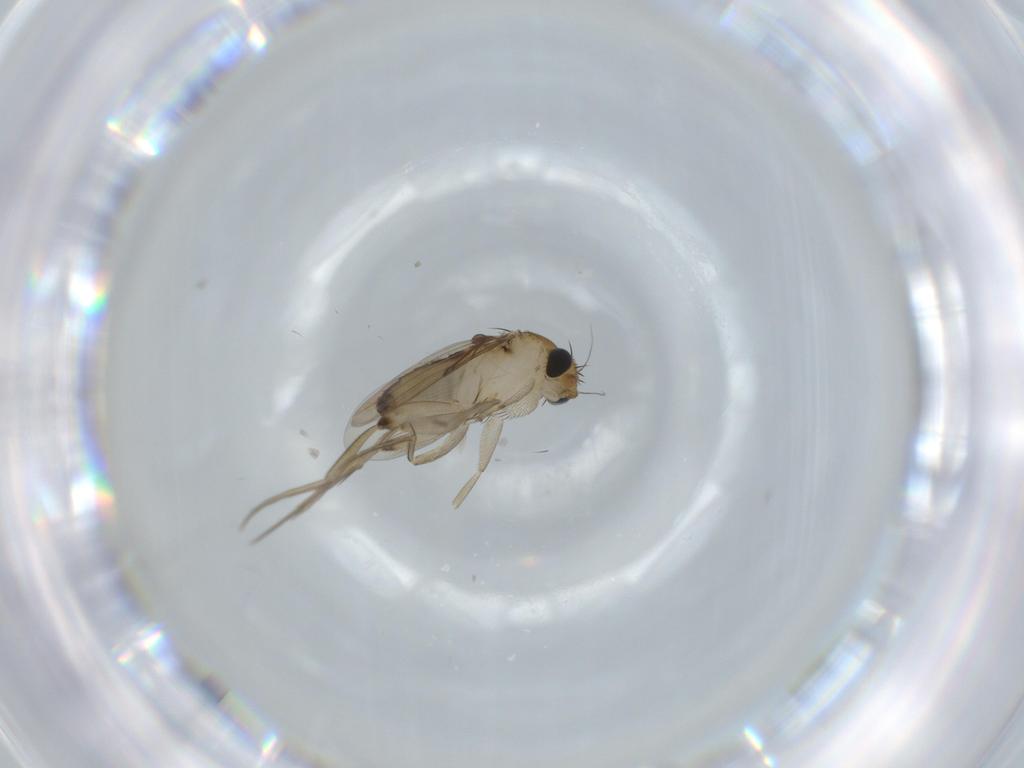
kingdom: Animalia
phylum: Arthropoda
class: Insecta
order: Diptera
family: Phoridae
